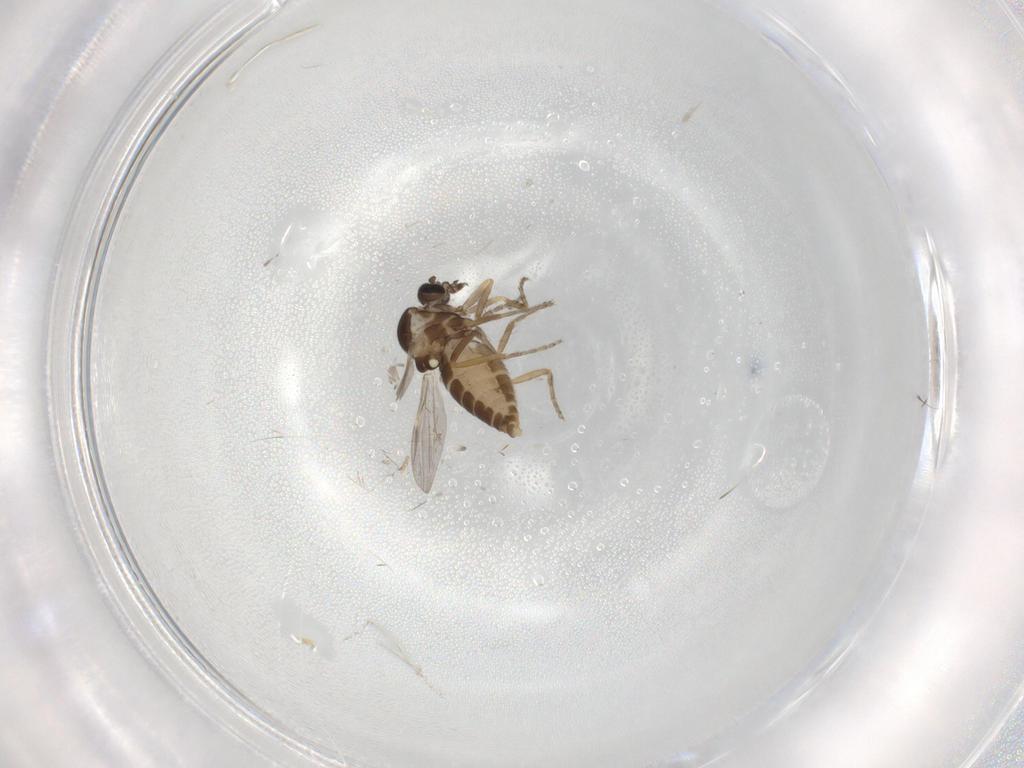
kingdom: Animalia
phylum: Arthropoda
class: Insecta
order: Diptera
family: Ceratopogonidae
